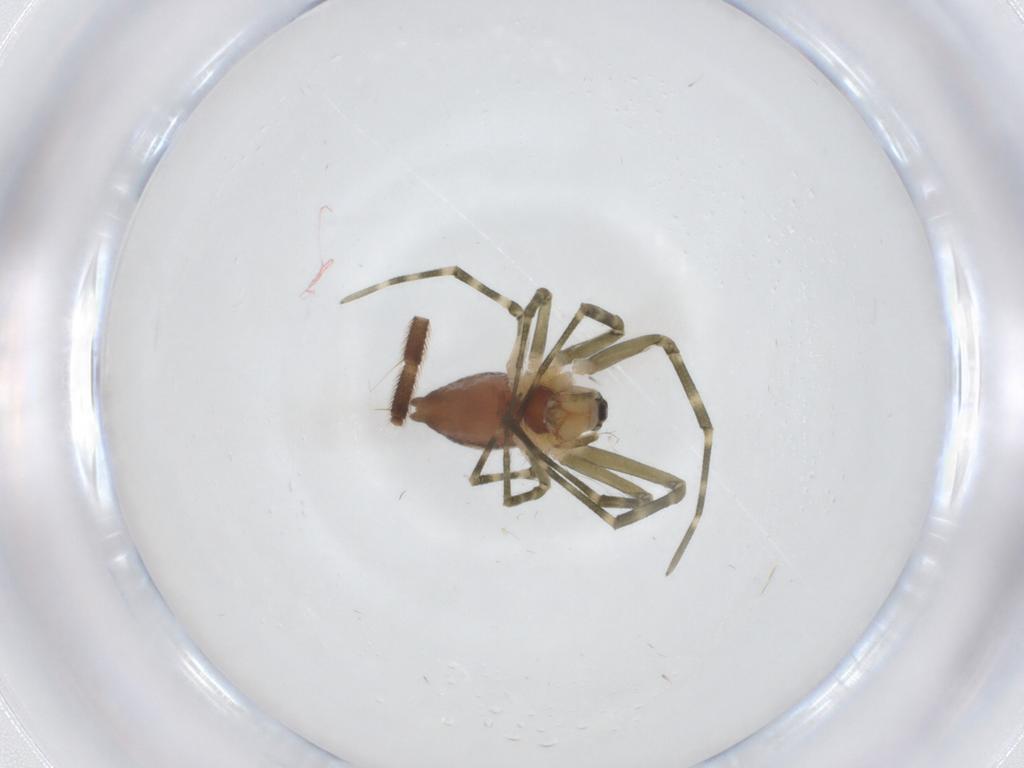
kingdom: Animalia
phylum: Arthropoda
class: Arachnida
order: Araneae
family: Linyphiidae
